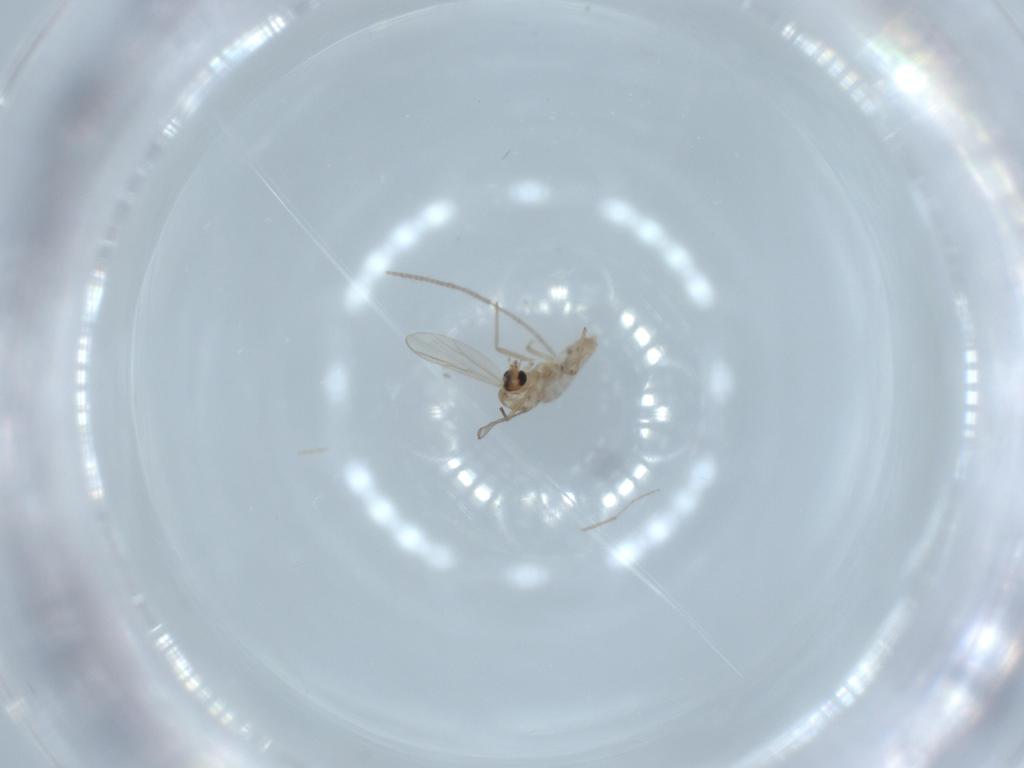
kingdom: Animalia
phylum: Arthropoda
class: Insecta
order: Diptera
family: Chironomidae
